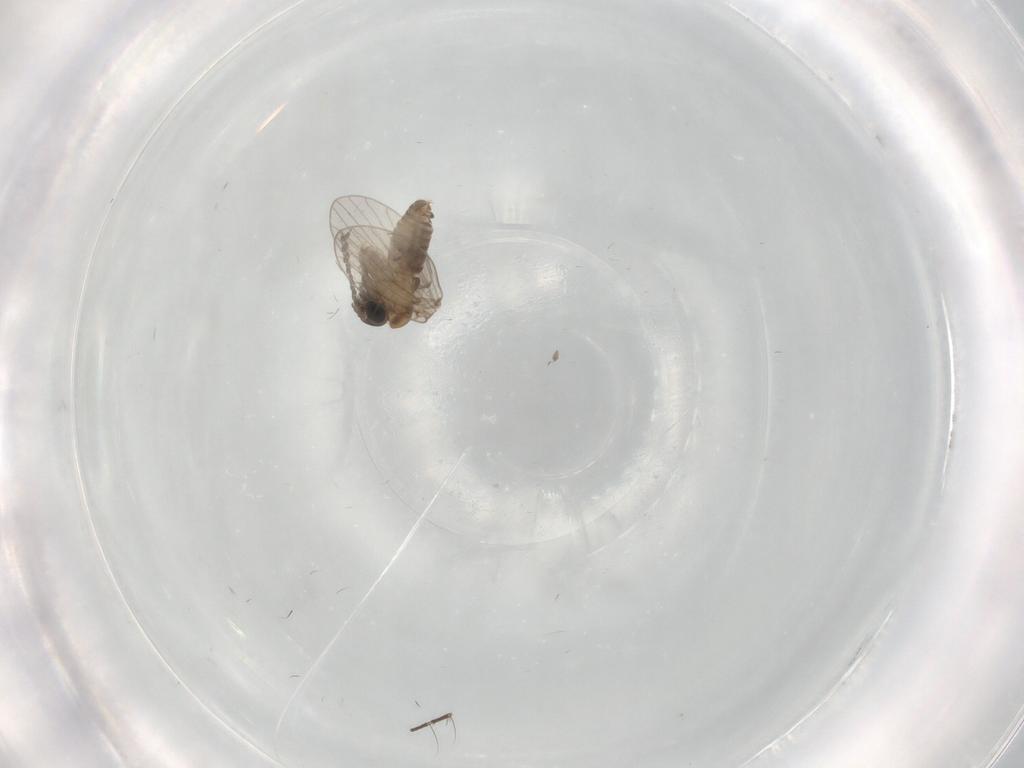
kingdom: Animalia
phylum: Arthropoda
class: Insecta
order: Diptera
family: Culicidae
